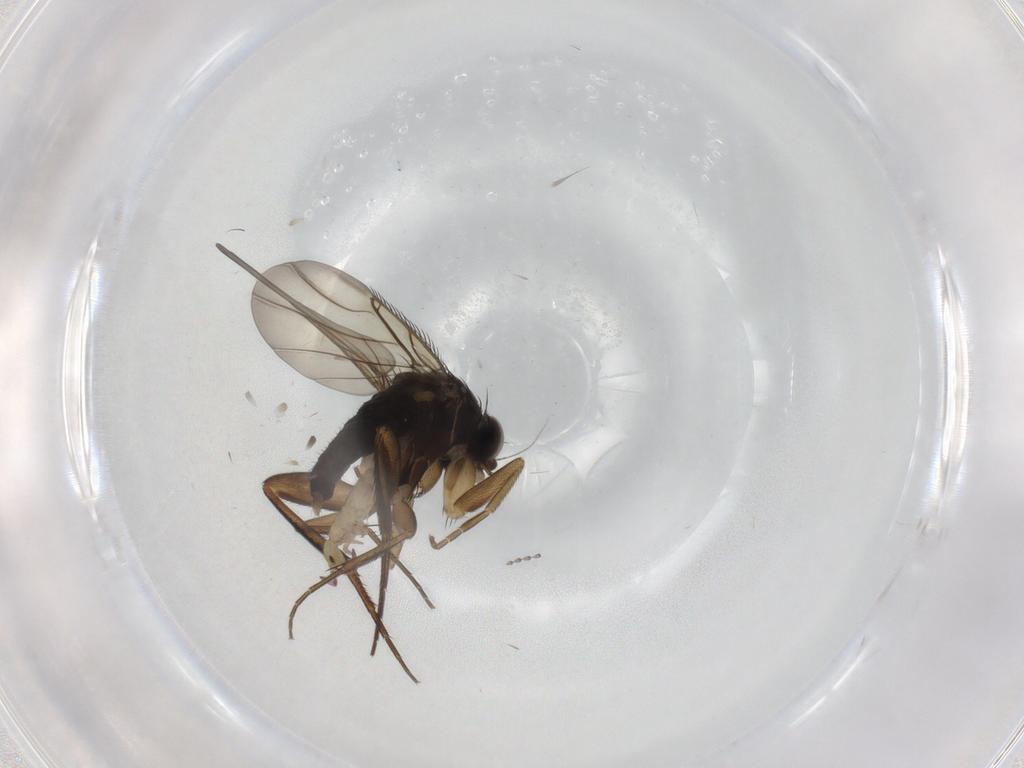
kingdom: Animalia
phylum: Arthropoda
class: Insecta
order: Diptera
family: Phoridae
